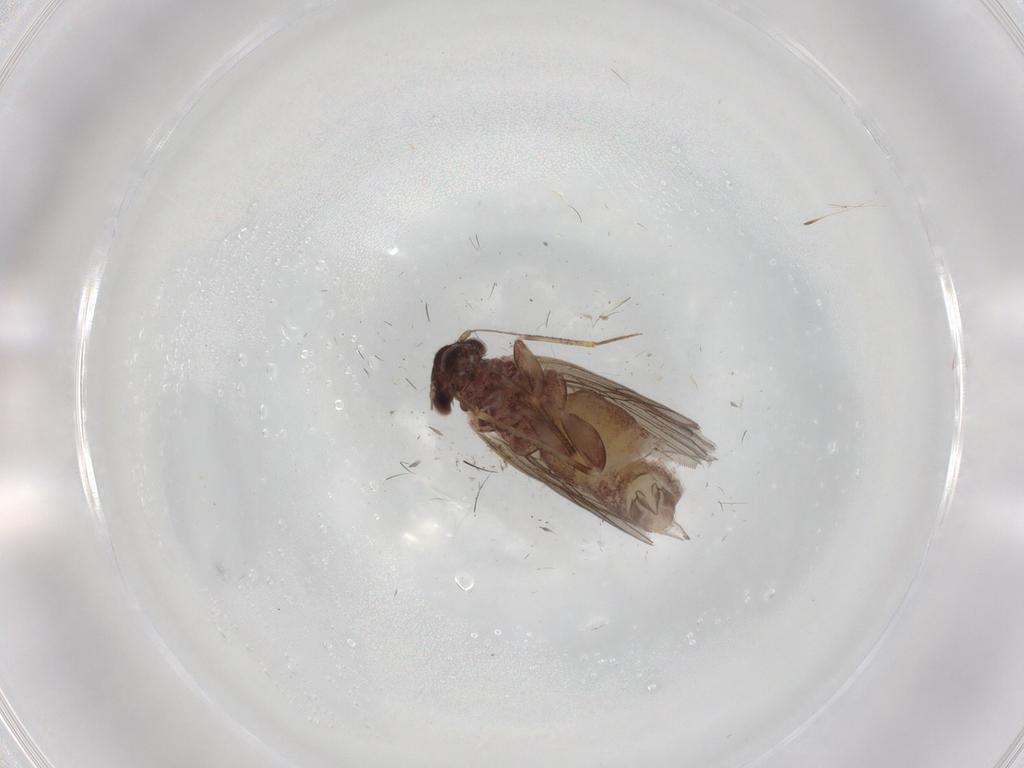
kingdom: Animalia
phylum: Arthropoda
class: Insecta
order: Psocodea
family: Lepidopsocidae
